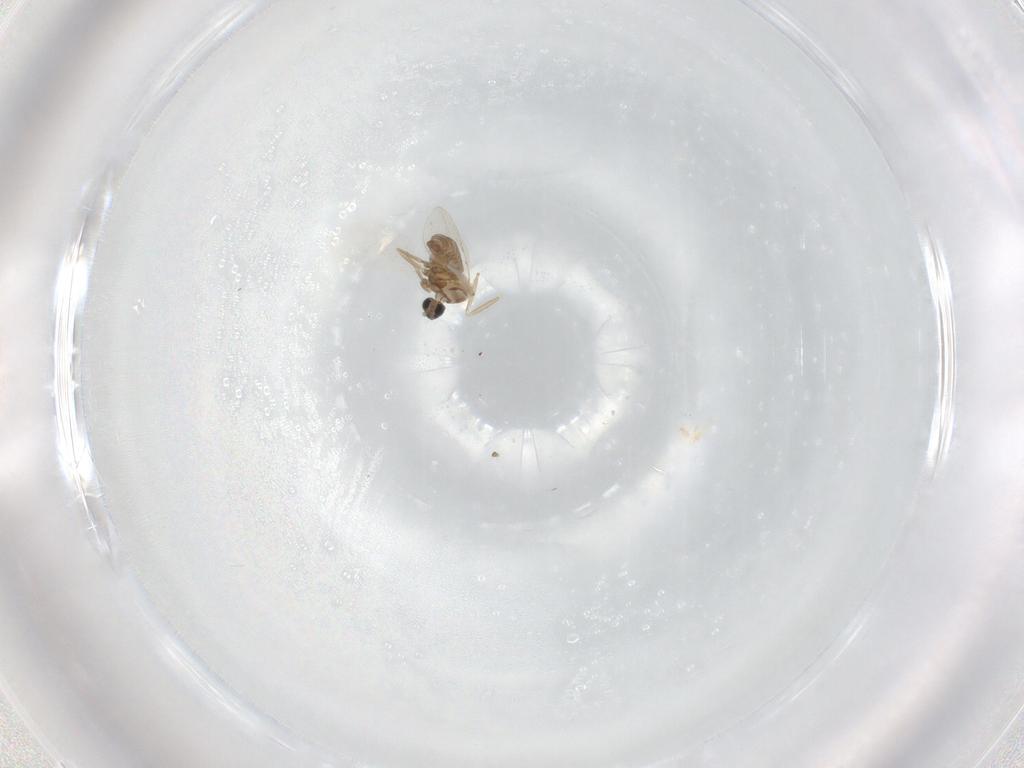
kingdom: Animalia
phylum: Arthropoda
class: Insecta
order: Diptera
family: Cecidomyiidae
